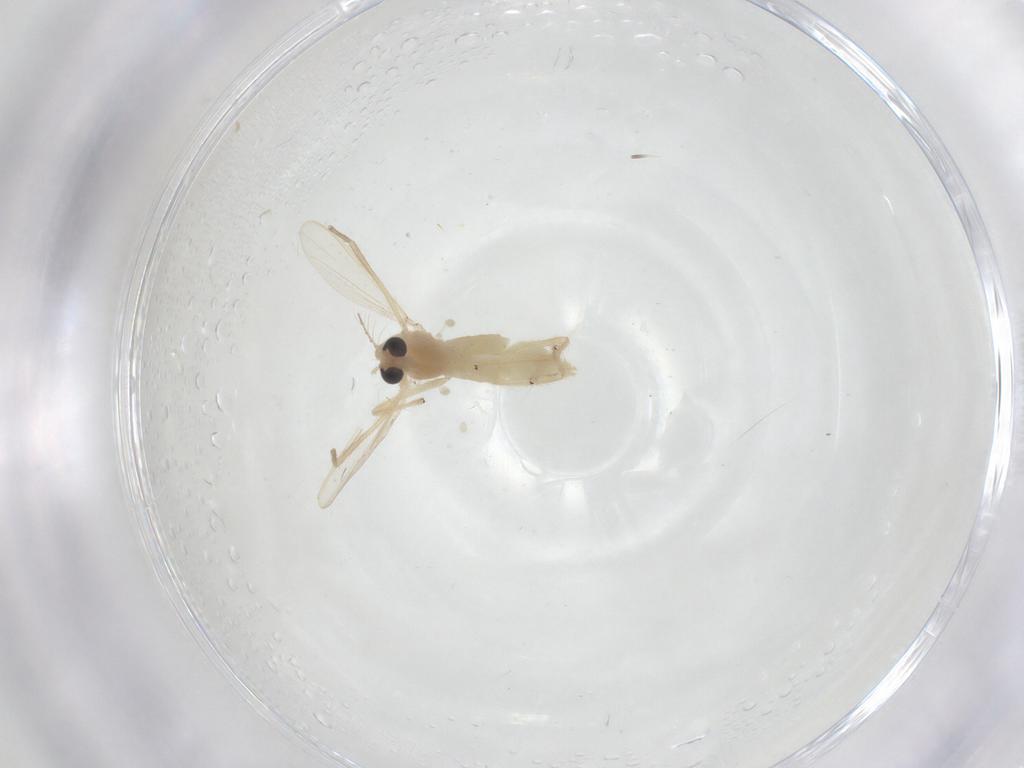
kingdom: Animalia
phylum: Arthropoda
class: Insecta
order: Diptera
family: Chironomidae
